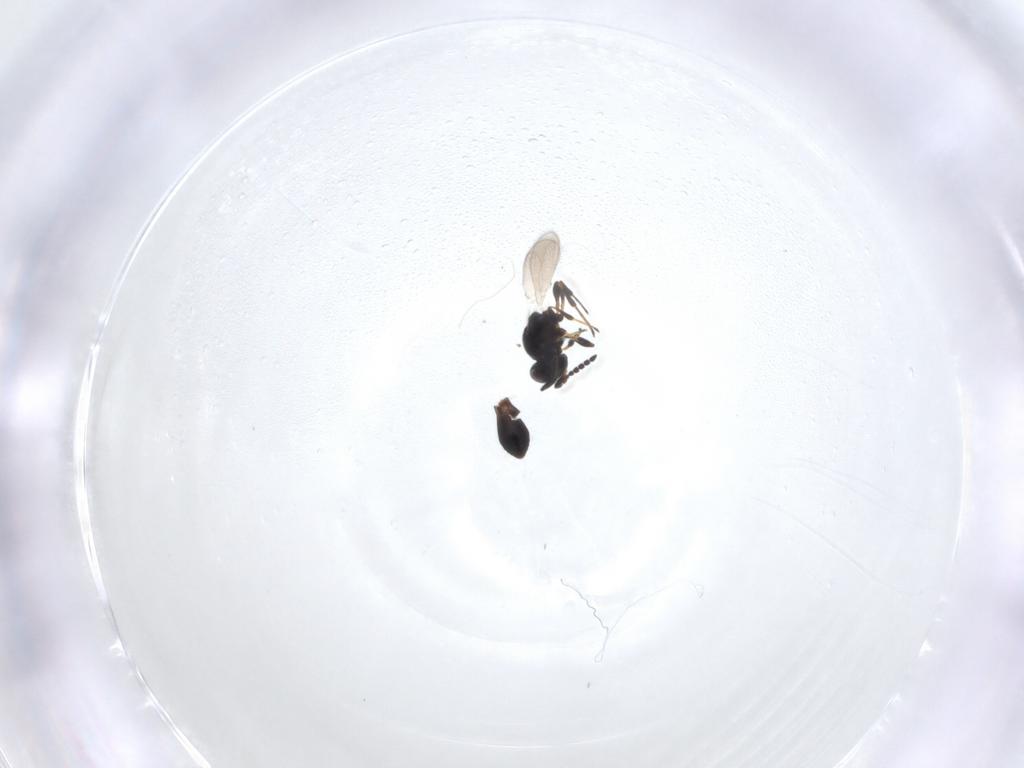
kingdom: Animalia
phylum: Arthropoda
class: Insecta
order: Hymenoptera
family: Platygastridae
